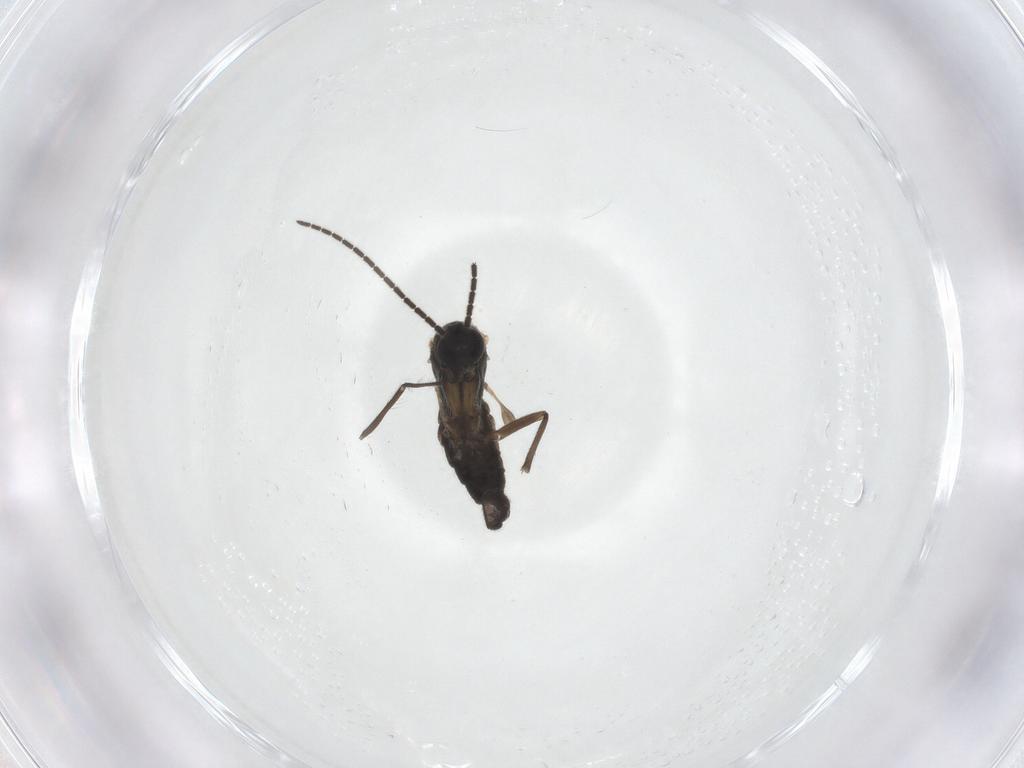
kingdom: Animalia
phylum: Arthropoda
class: Insecta
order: Diptera
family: Sciaridae
